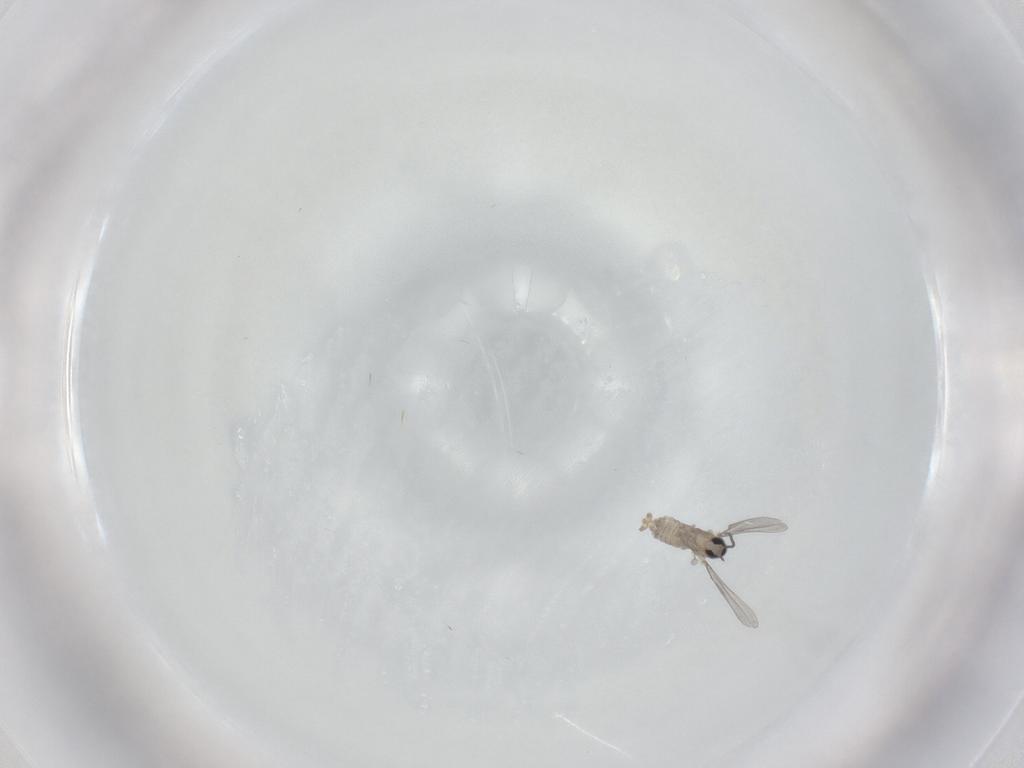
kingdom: Animalia
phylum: Arthropoda
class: Insecta
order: Diptera
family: Cecidomyiidae
